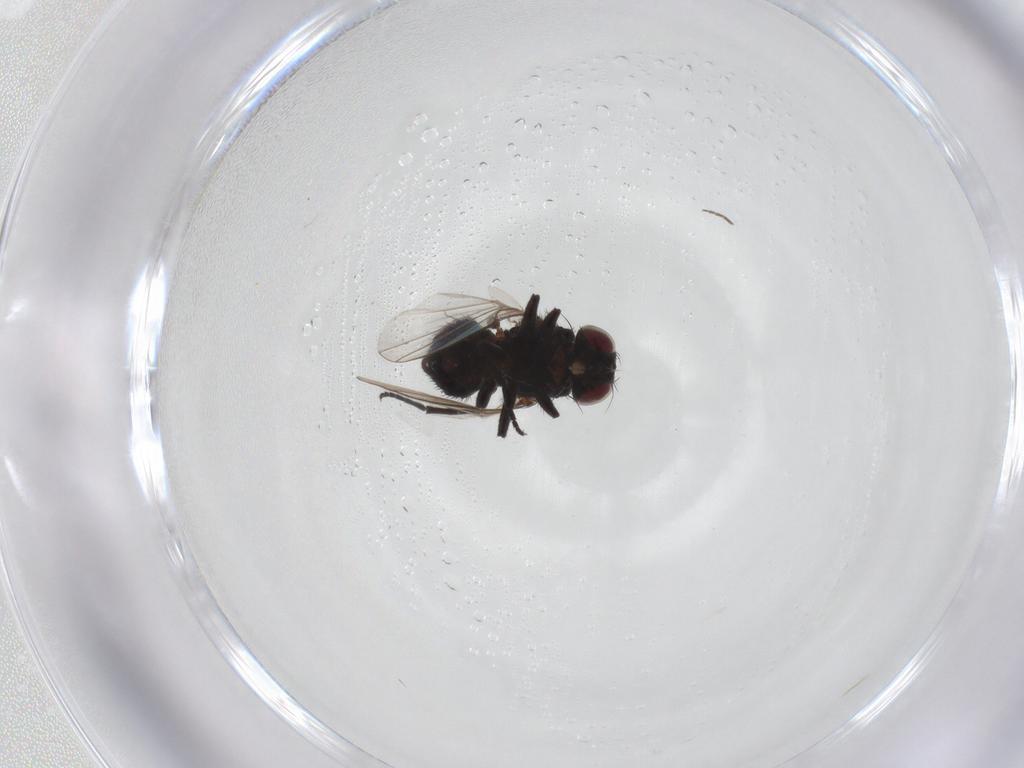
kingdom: Animalia
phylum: Arthropoda
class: Insecta
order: Diptera
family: Agromyzidae
